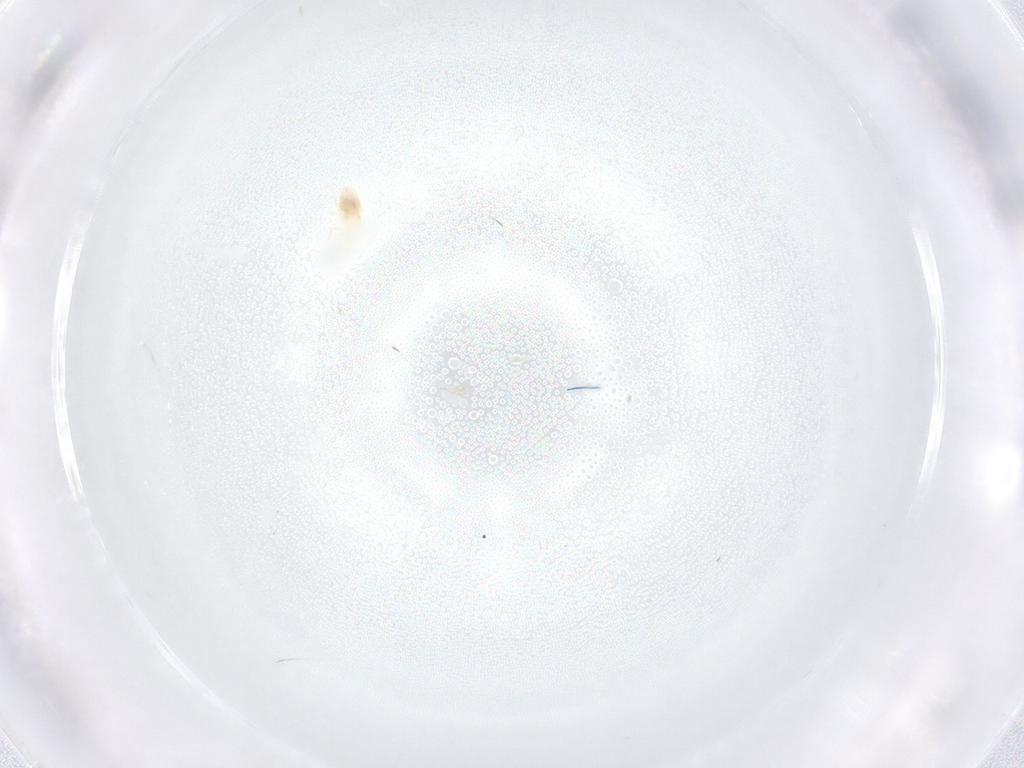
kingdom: Animalia
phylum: Arthropoda
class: Arachnida
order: Mesostigmata
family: Melicharidae
